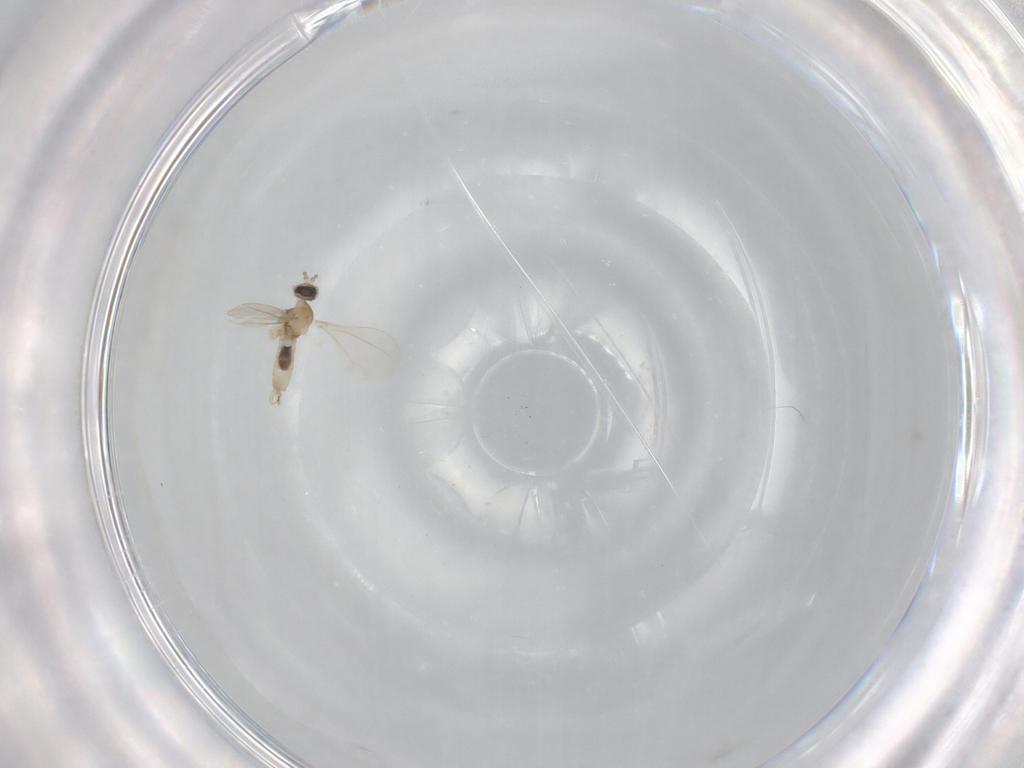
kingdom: Animalia
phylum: Arthropoda
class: Insecta
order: Diptera
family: Cecidomyiidae
